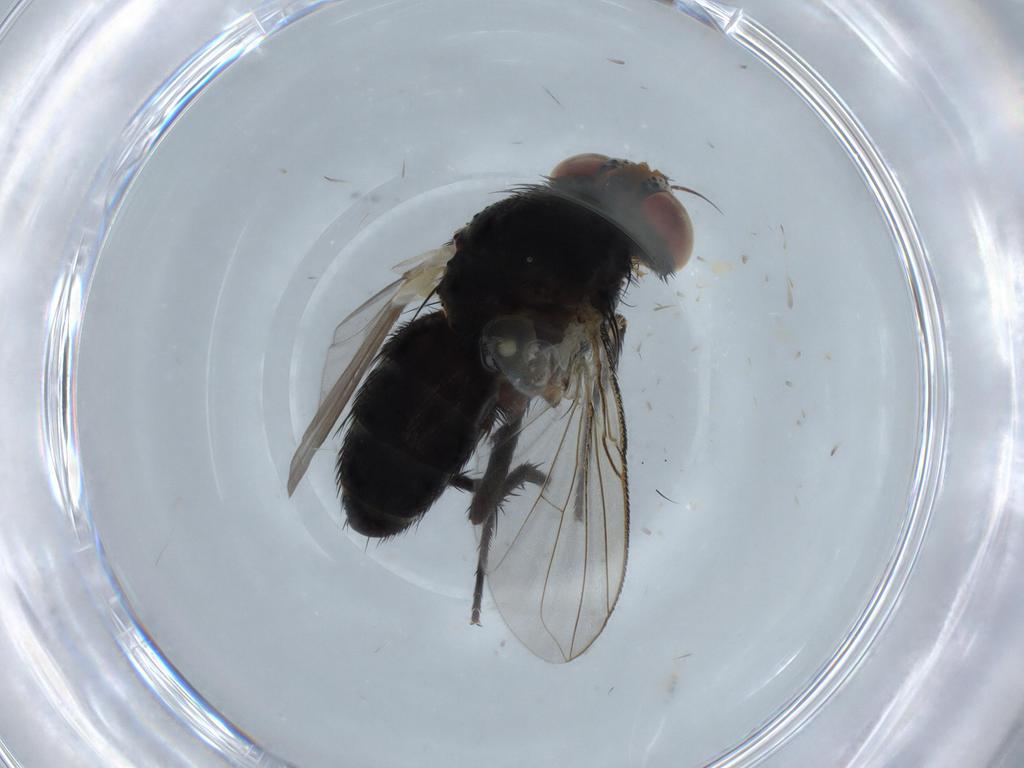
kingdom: Animalia
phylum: Arthropoda
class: Insecta
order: Diptera
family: Tachinidae
